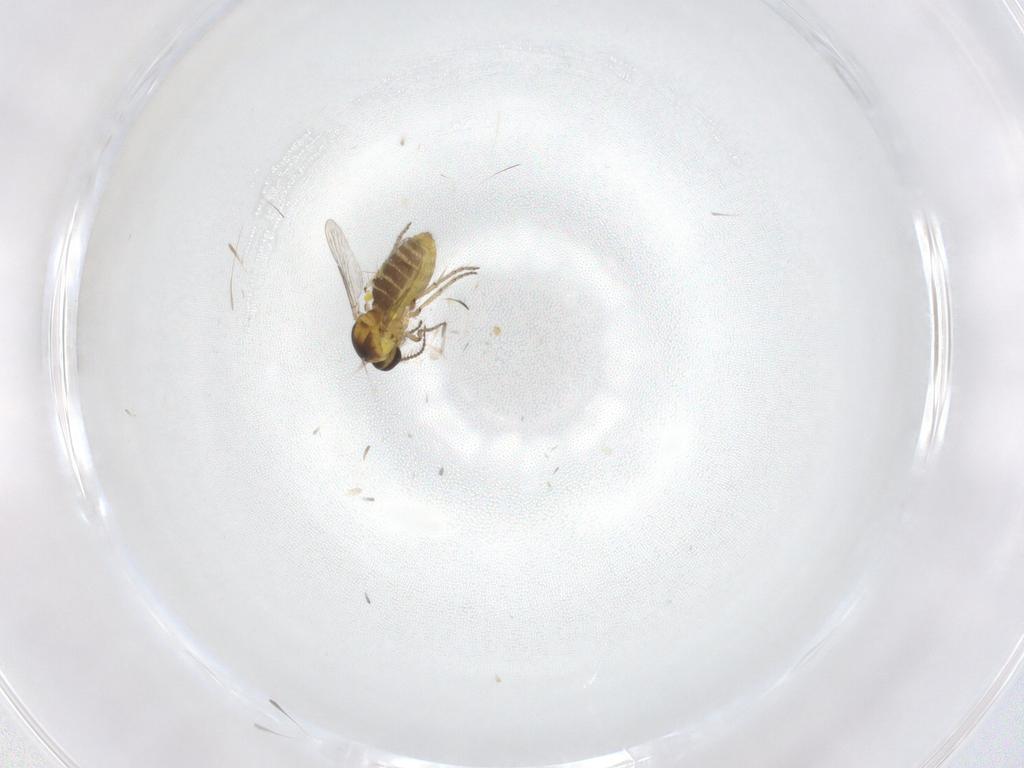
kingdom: Animalia
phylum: Arthropoda
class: Insecta
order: Diptera
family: Ceratopogonidae
